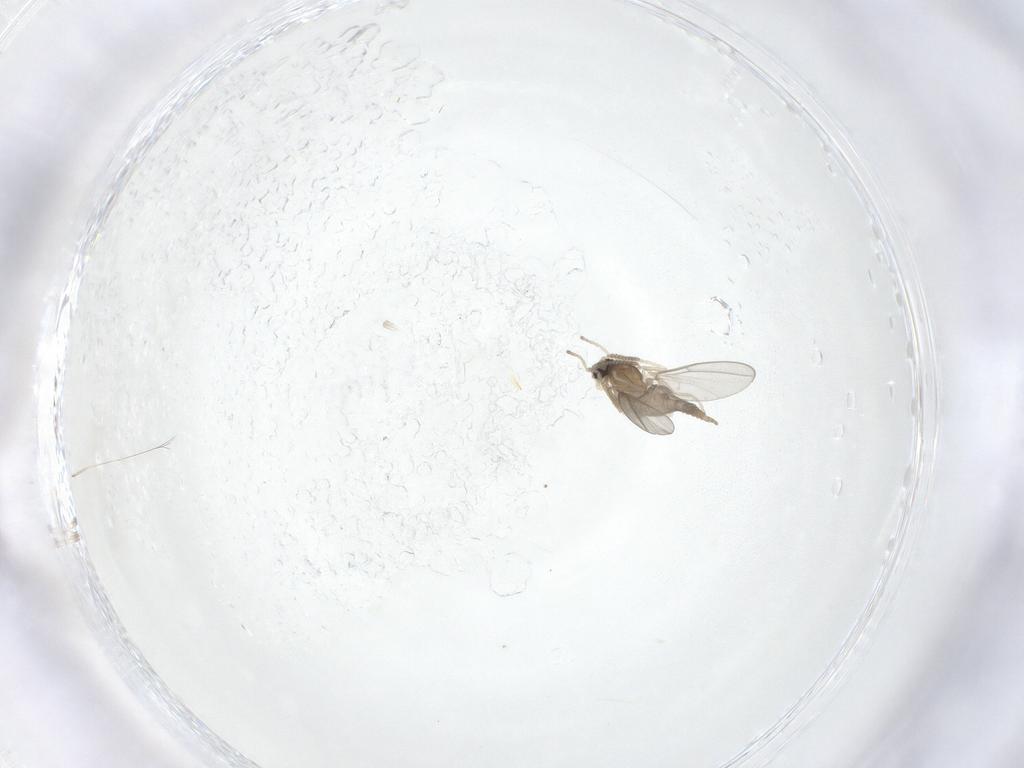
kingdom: Animalia
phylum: Arthropoda
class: Insecta
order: Diptera
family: Cecidomyiidae
